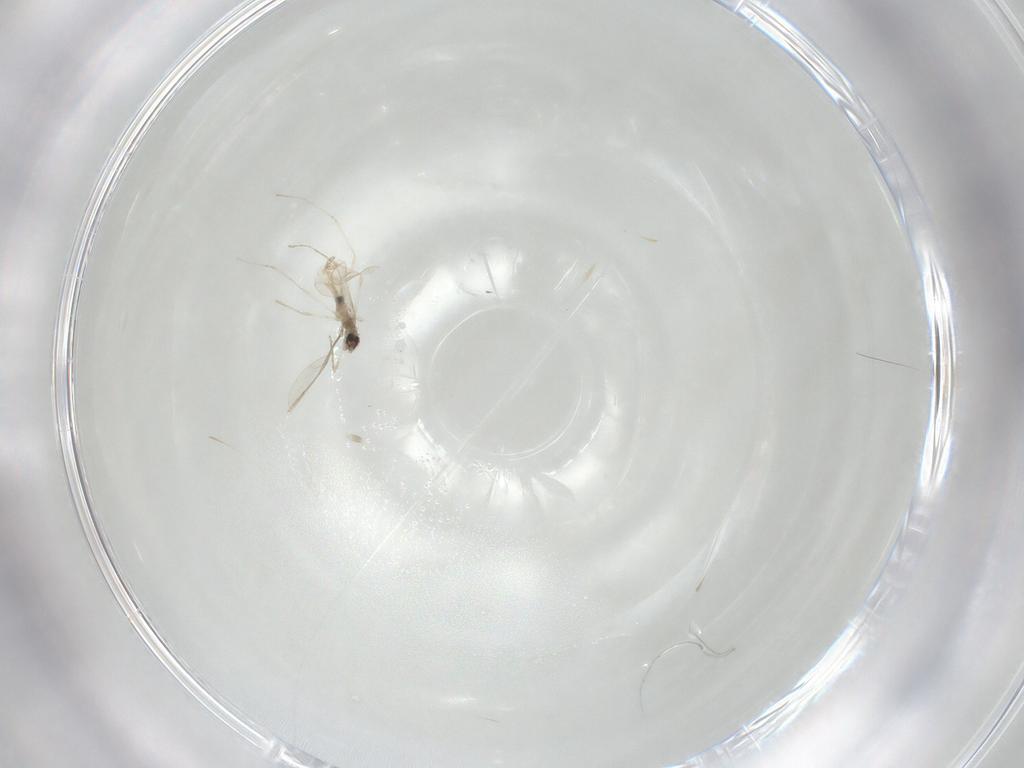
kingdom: Animalia
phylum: Arthropoda
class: Insecta
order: Diptera
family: Cecidomyiidae
